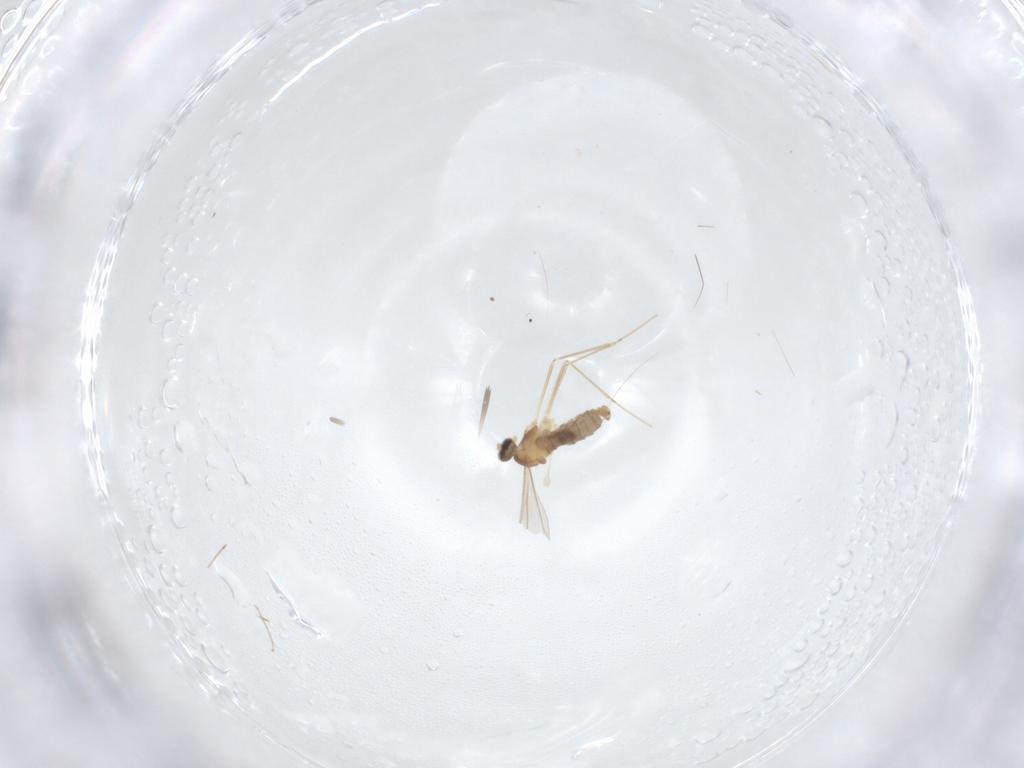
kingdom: Animalia
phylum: Arthropoda
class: Insecta
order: Diptera
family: Cecidomyiidae
